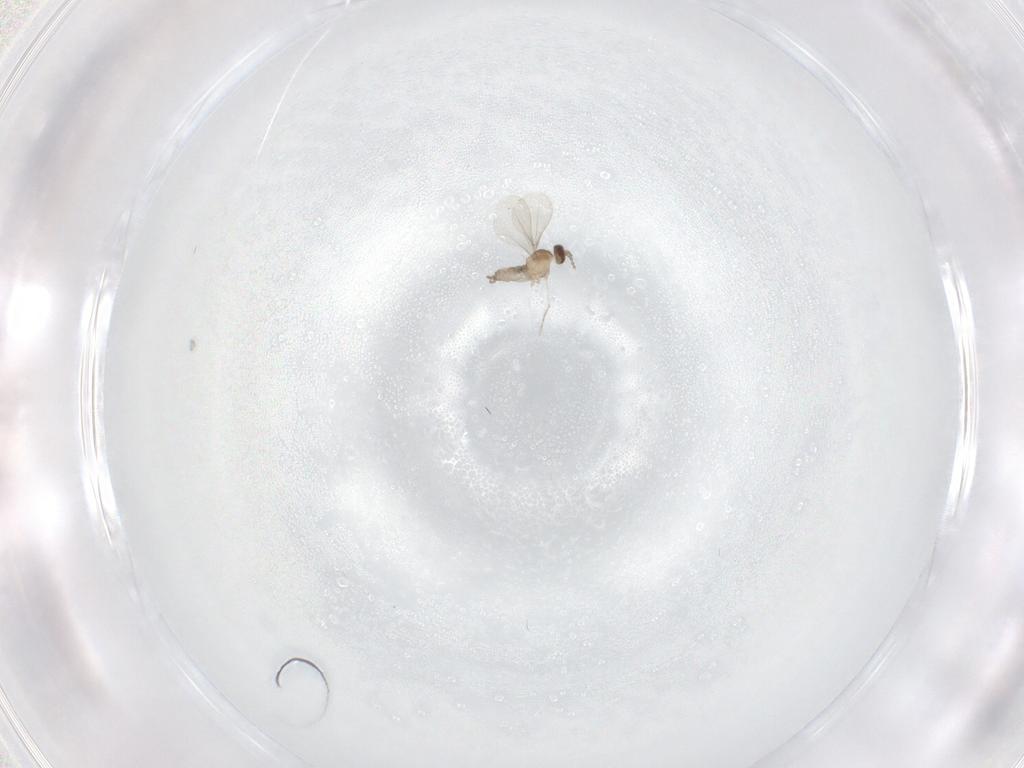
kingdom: Animalia
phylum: Arthropoda
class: Insecta
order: Diptera
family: Cecidomyiidae
